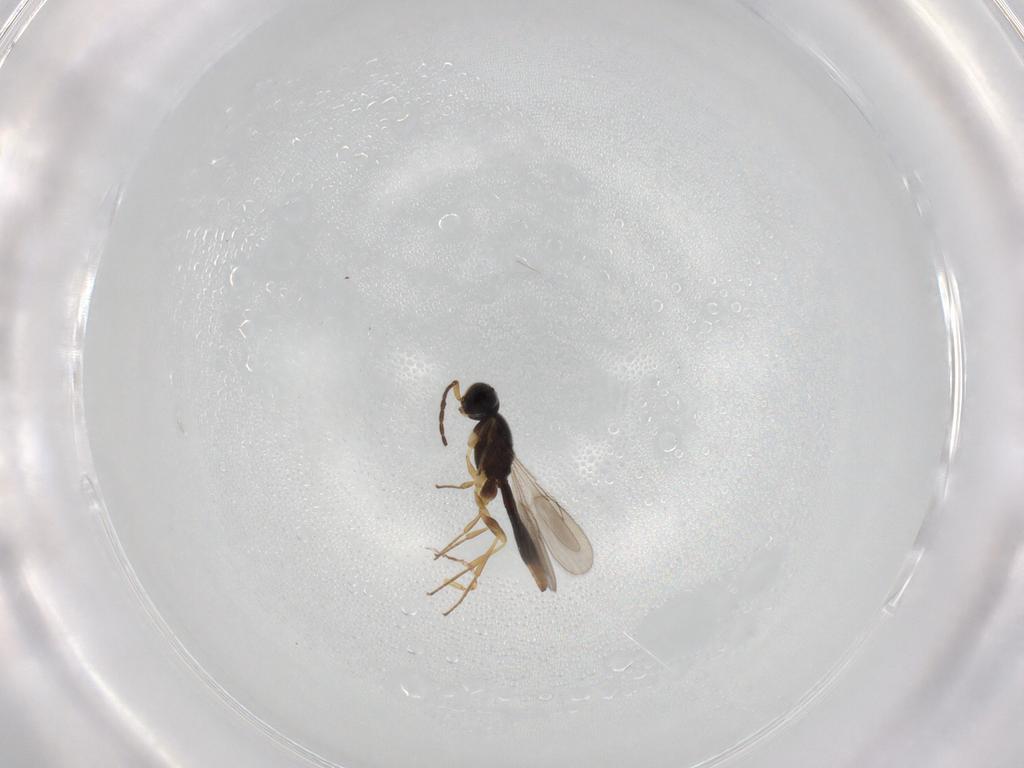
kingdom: Animalia
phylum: Arthropoda
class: Insecta
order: Hymenoptera
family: Scelionidae
